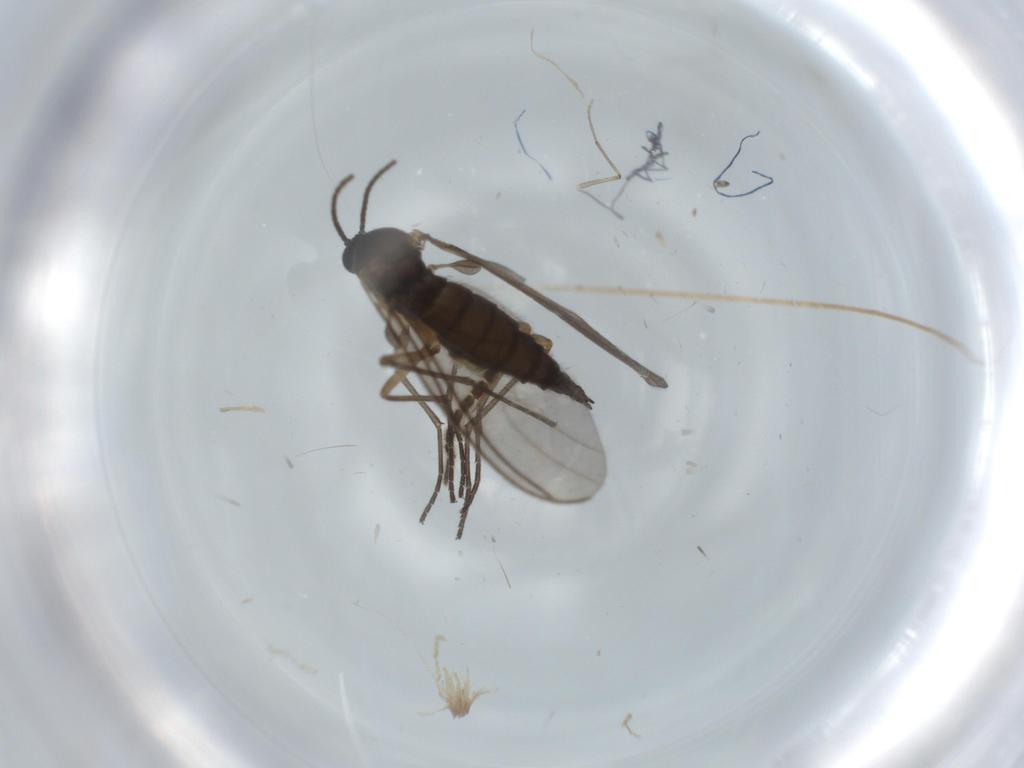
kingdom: Animalia
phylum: Arthropoda
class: Insecta
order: Diptera
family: Sciaridae
